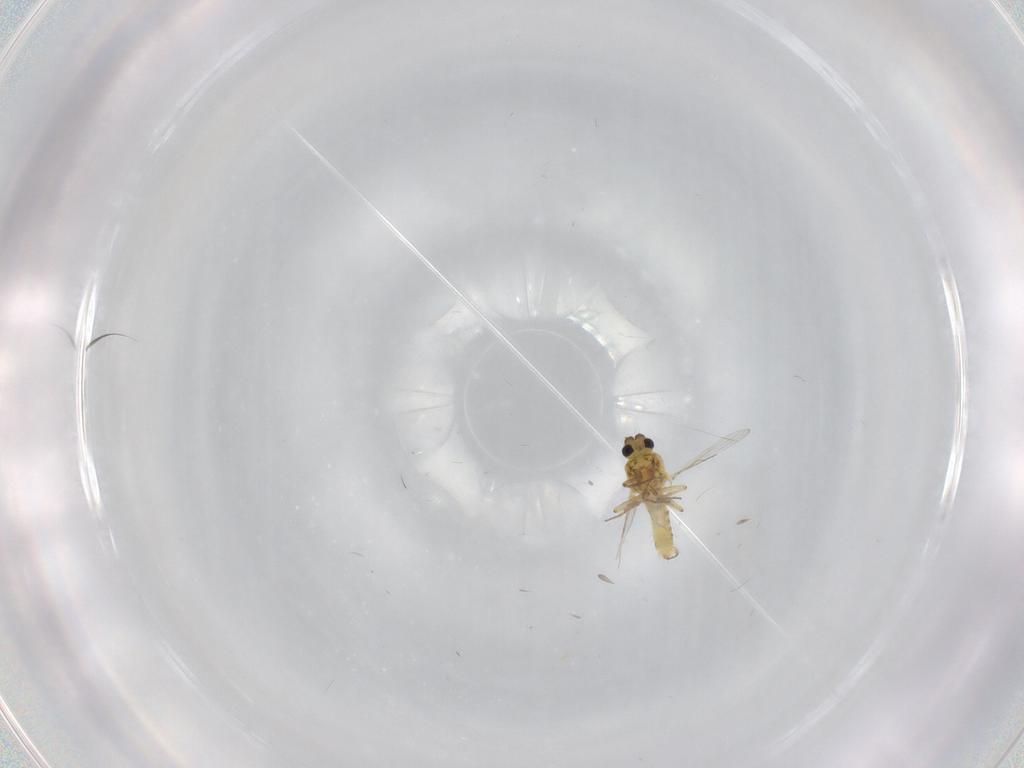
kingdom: Animalia
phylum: Arthropoda
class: Insecta
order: Diptera
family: Ceratopogonidae
